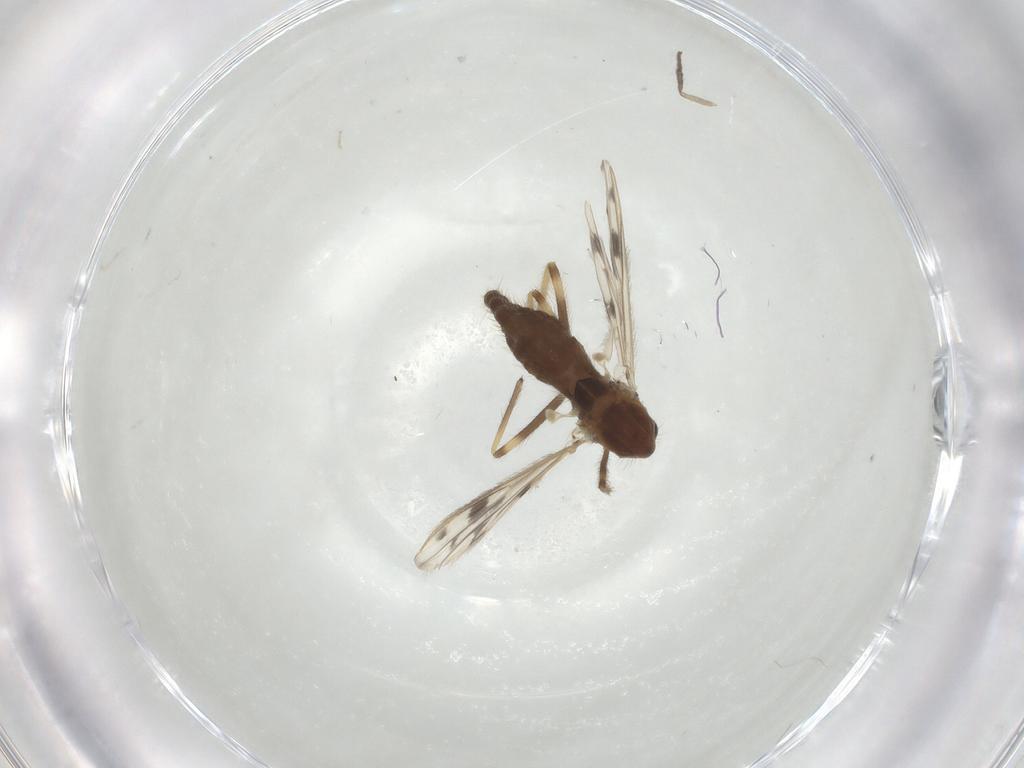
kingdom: Animalia
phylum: Arthropoda
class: Insecta
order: Diptera
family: Chironomidae
